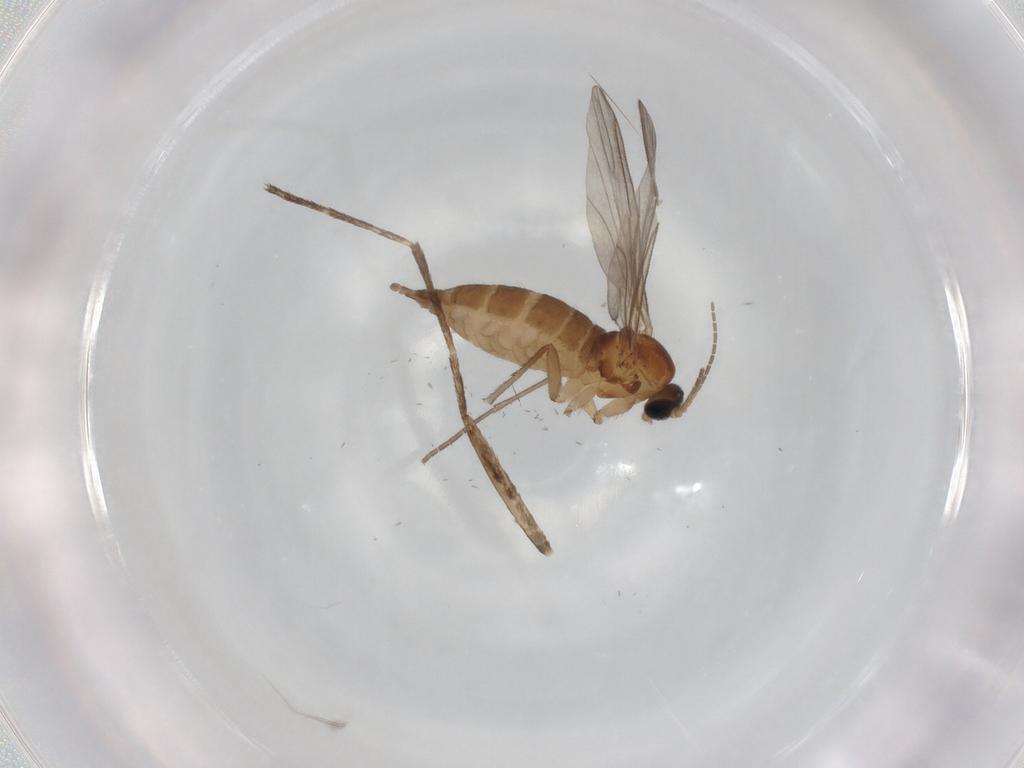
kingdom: Animalia
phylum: Arthropoda
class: Insecta
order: Diptera
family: Sciaridae
